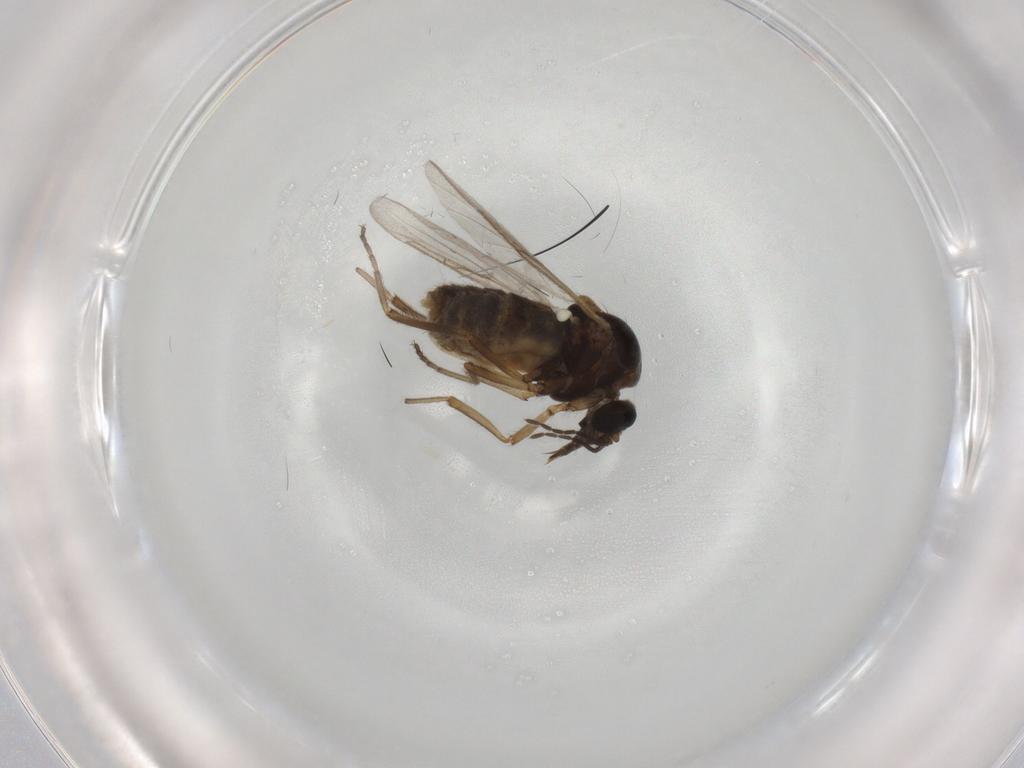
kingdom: Animalia
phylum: Arthropoda
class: Insecta
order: Diptera
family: Ceratopogonidae
